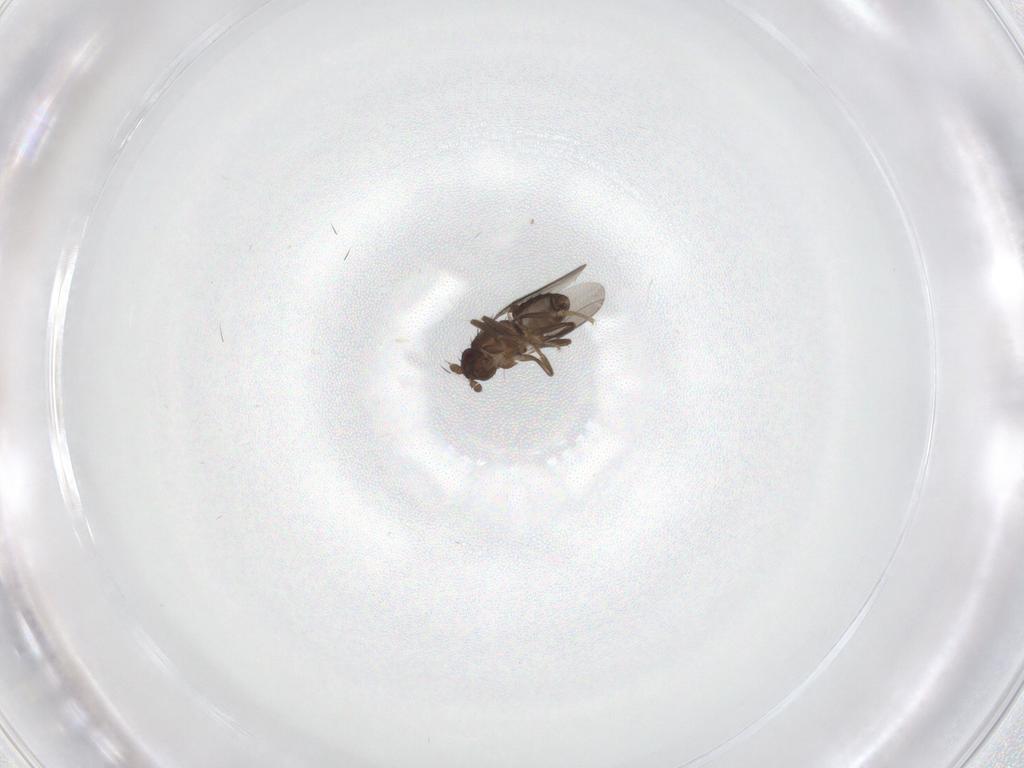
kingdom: Animalia
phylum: Arthropoda
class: Insecta
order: Diptera
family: Sphaeroceridae
